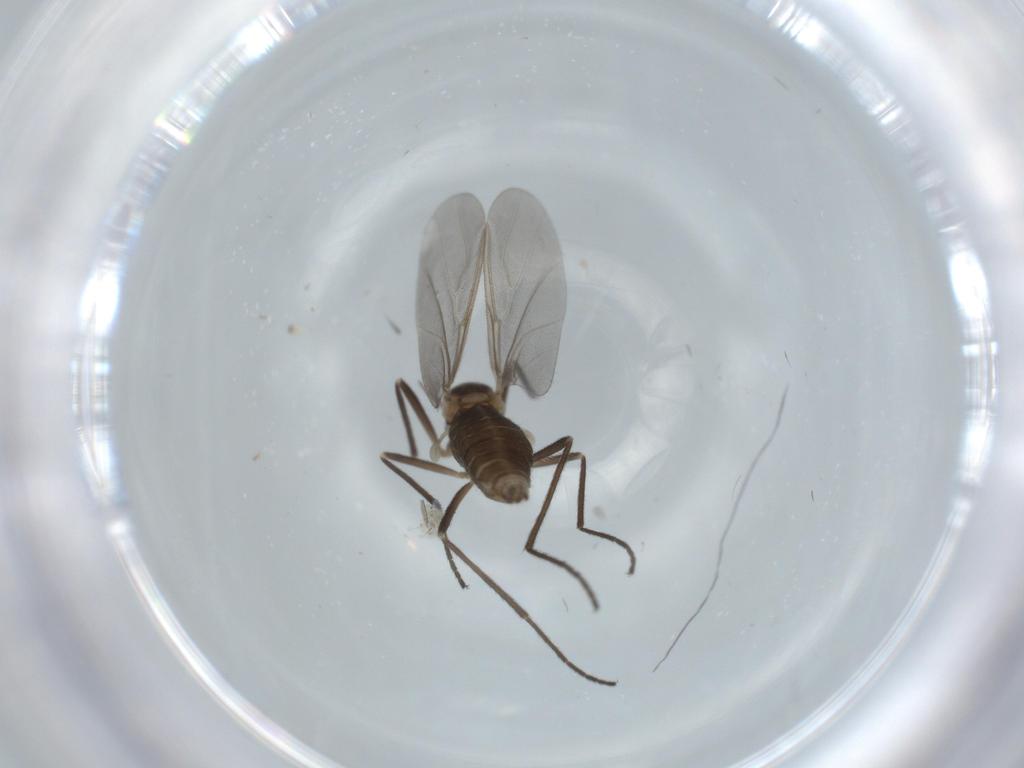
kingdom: Animalia
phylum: Arthropoda
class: Insecta
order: Diptera
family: Cecidomyiidae
